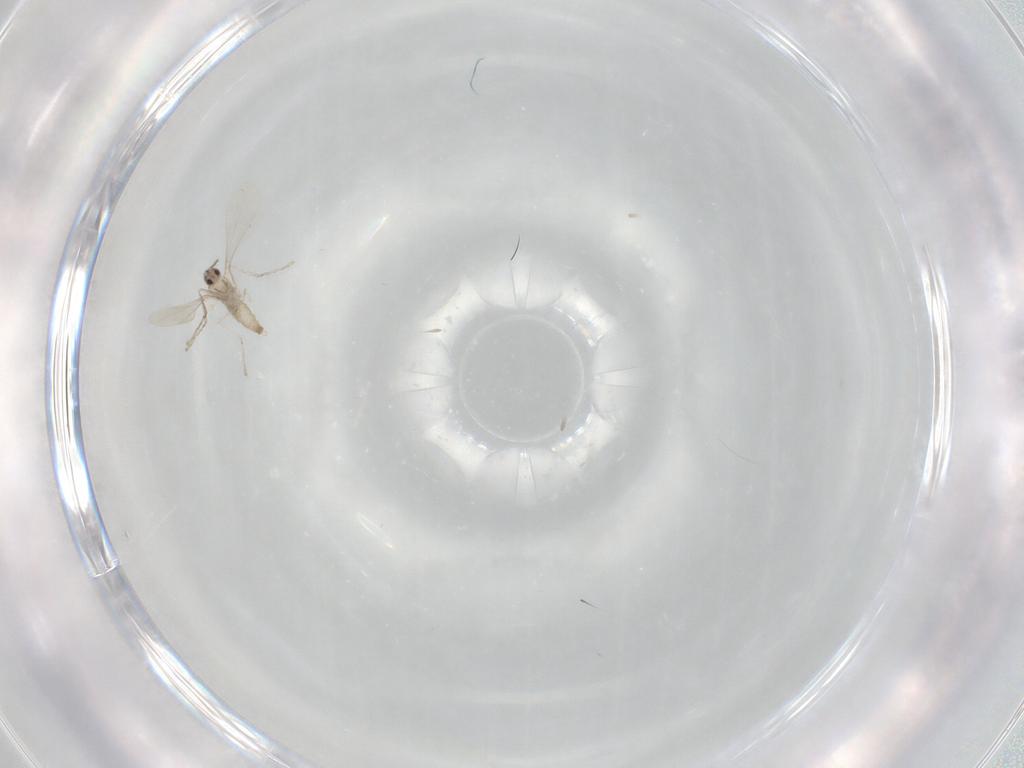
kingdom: Animalia
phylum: Arthropoda
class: Insecta
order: Diptera
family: Cecidomyiidae
